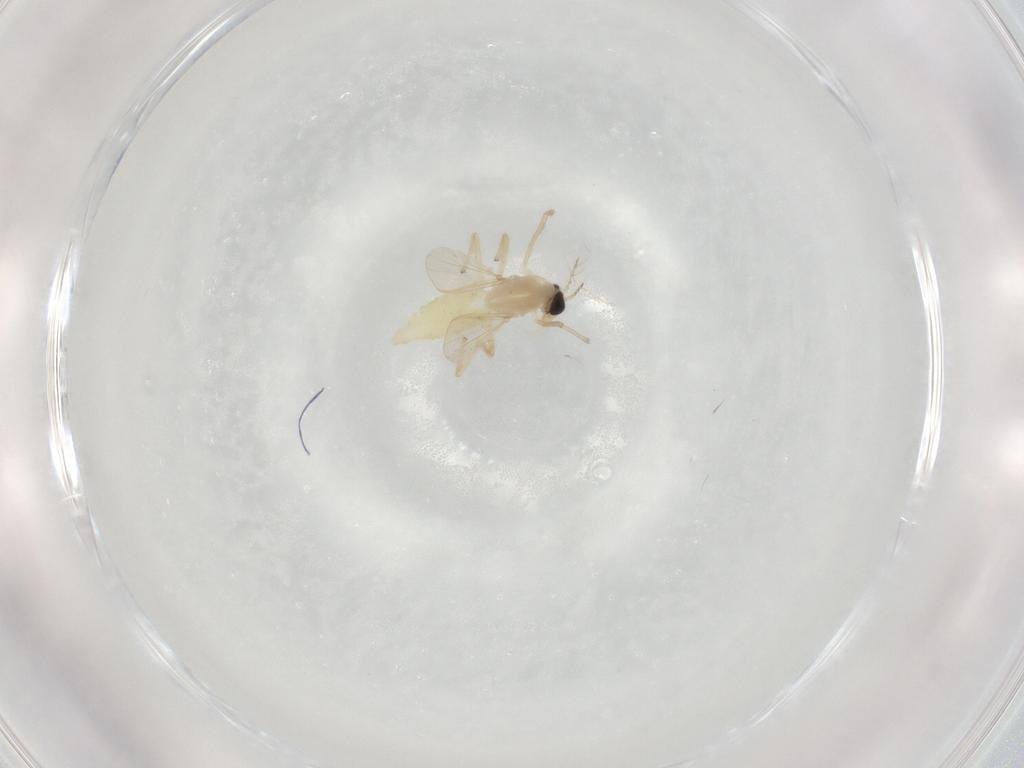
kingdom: Animalia
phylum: Arthropoda
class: Insecta
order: Diptera
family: Chironomidae
